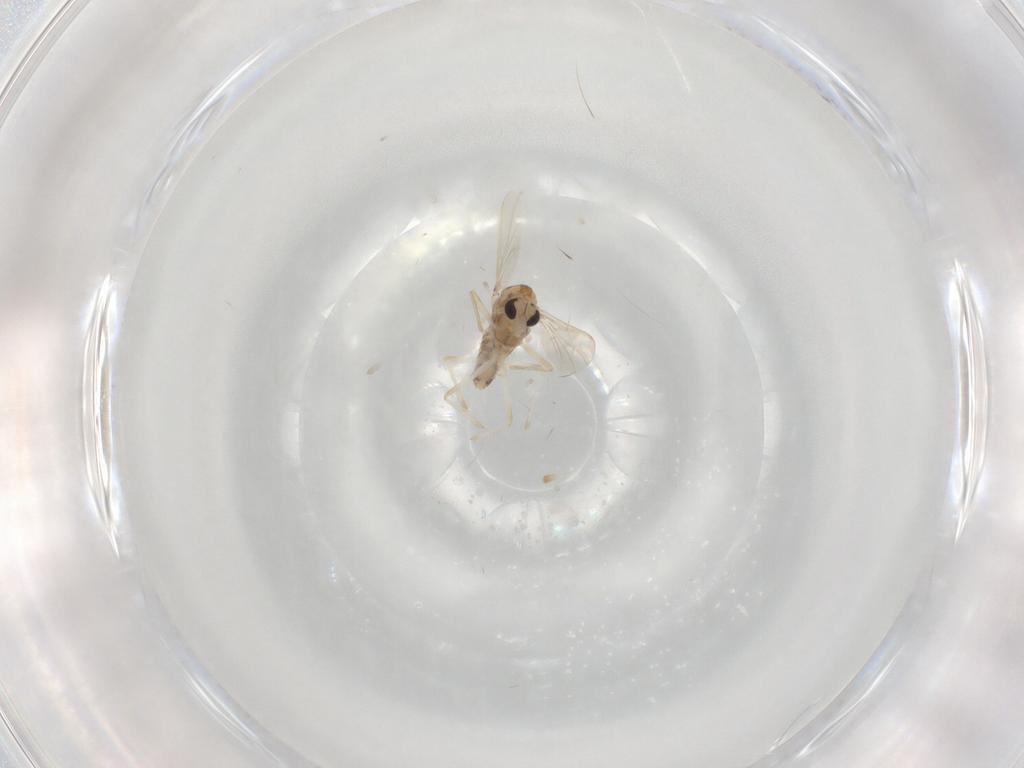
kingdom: Animalia
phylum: Arthropoda
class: Insecta
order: Diptera
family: Chironomidae
